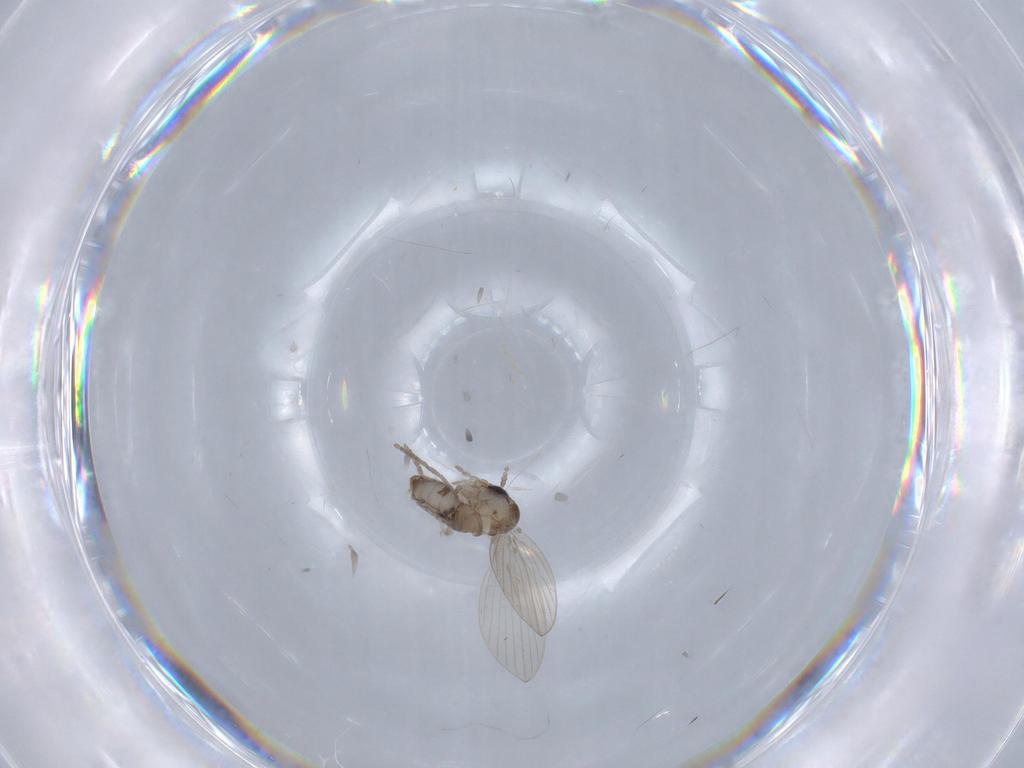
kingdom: Animalia
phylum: Arthropoda
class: Insecta
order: Diptera
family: Psychodidae
